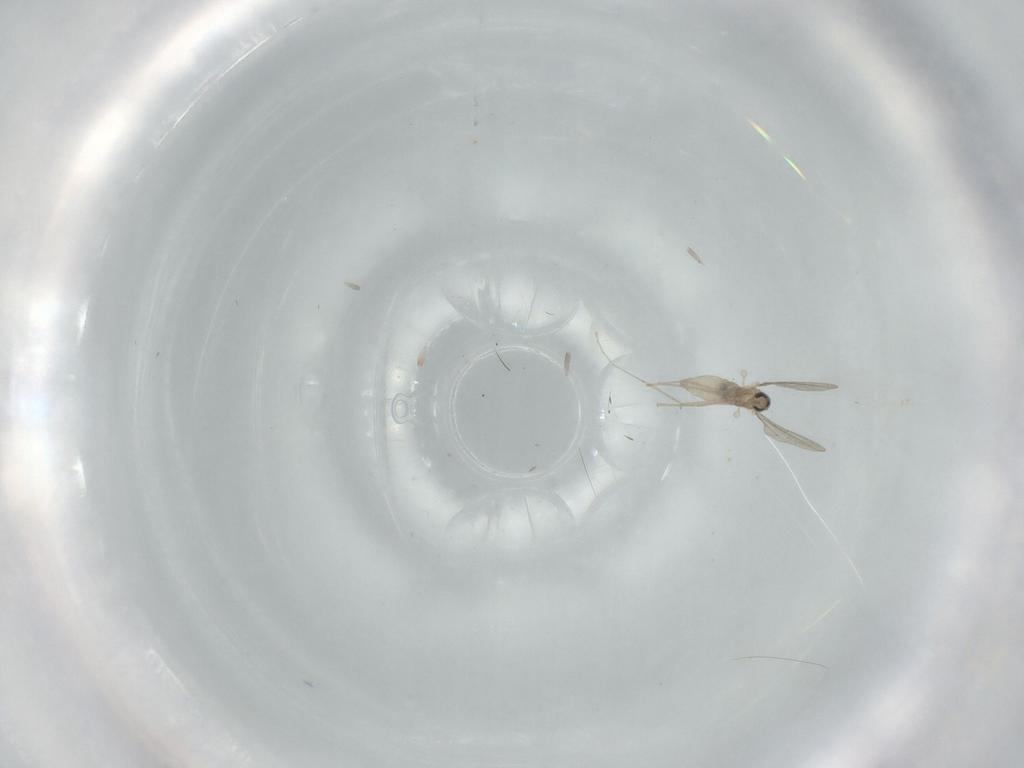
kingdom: Animalia
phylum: Arthropoda
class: Insecta
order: Diptera
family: Cecidomyiidae
